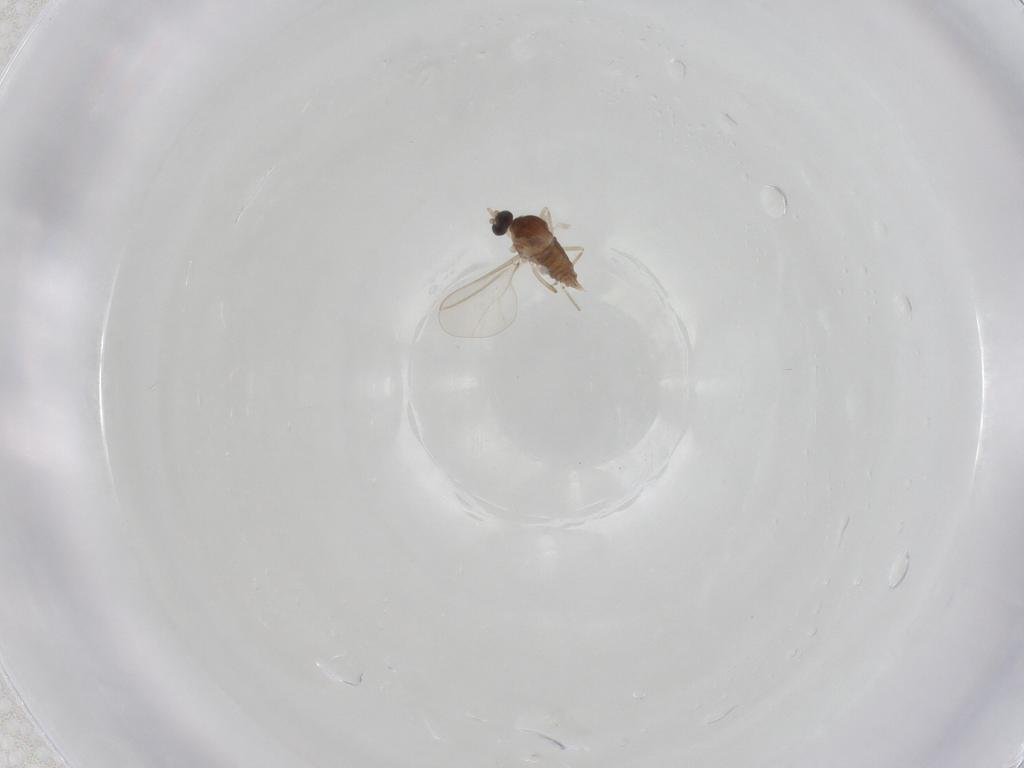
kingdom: Animalia
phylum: Arthropoda
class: Insecta
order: Diptera
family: Cecidomyiidae
